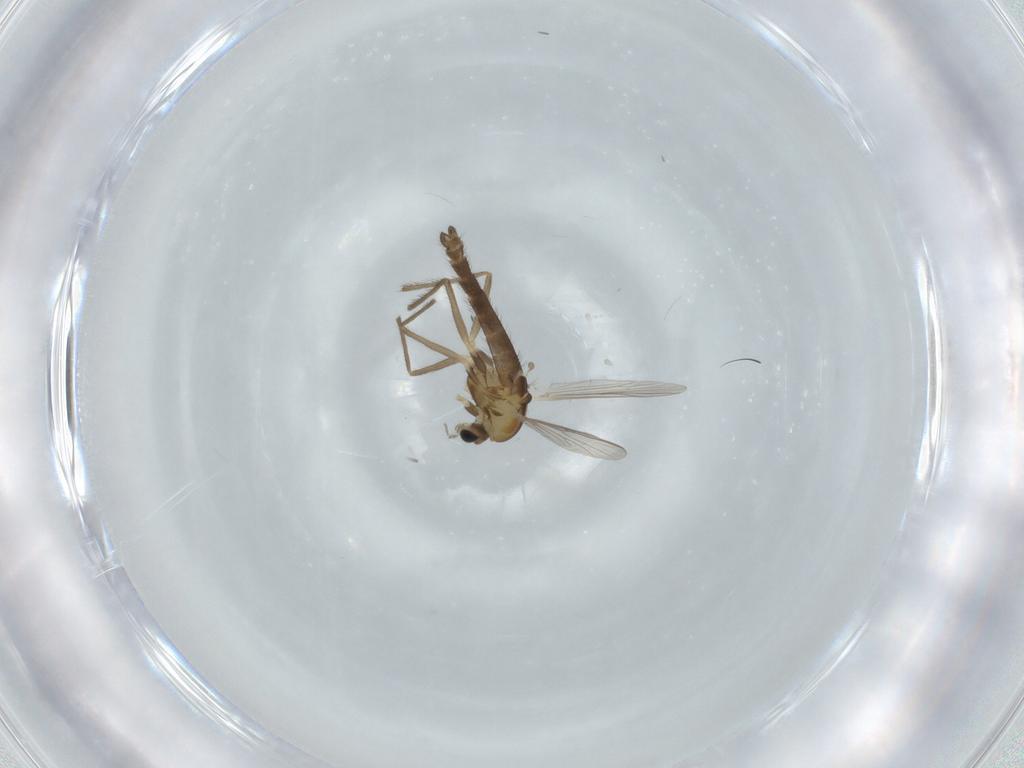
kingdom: Animalia
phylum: Arthropoda
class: Insecta
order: Diptera
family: Chironomidae
